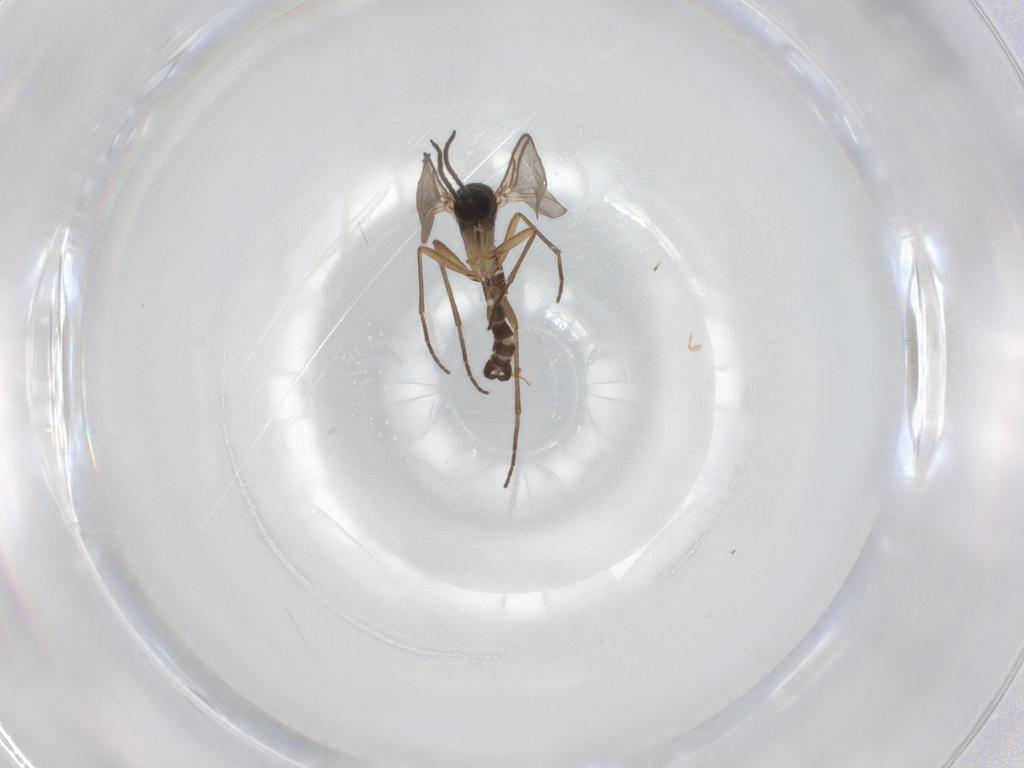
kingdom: Animalia
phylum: Arthropoda
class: Insecta
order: Diptera
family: Sciaridae
